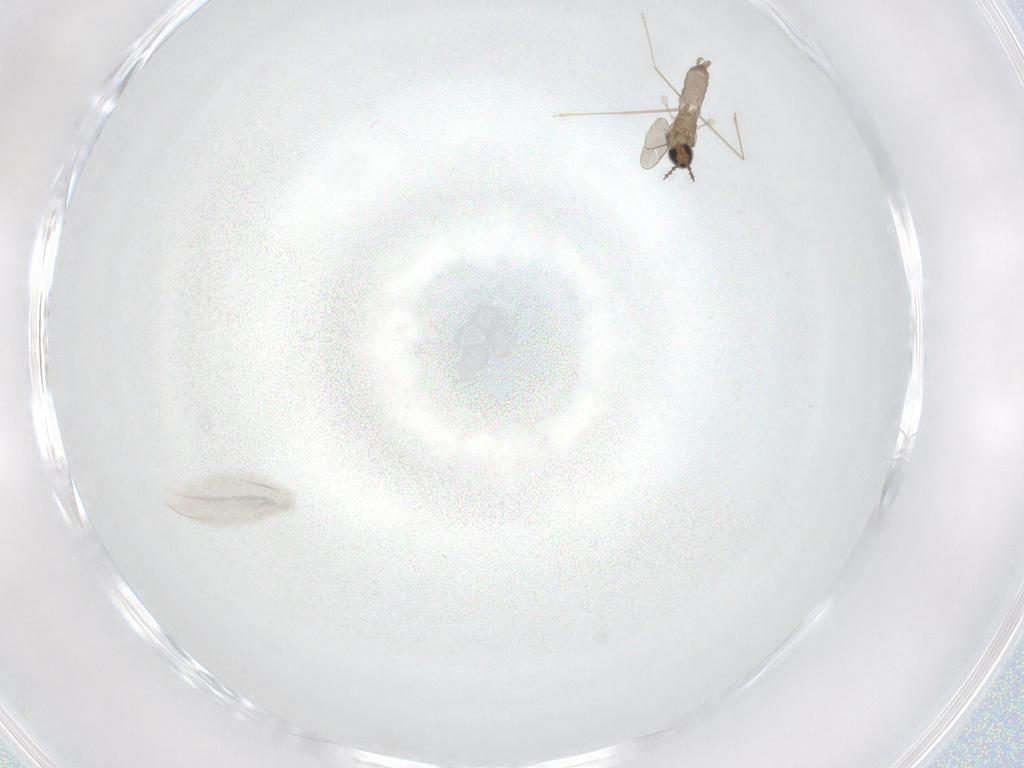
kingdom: Animalia
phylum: Arthropoda
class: Insecta
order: Diptera
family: Cecidomyiidae
